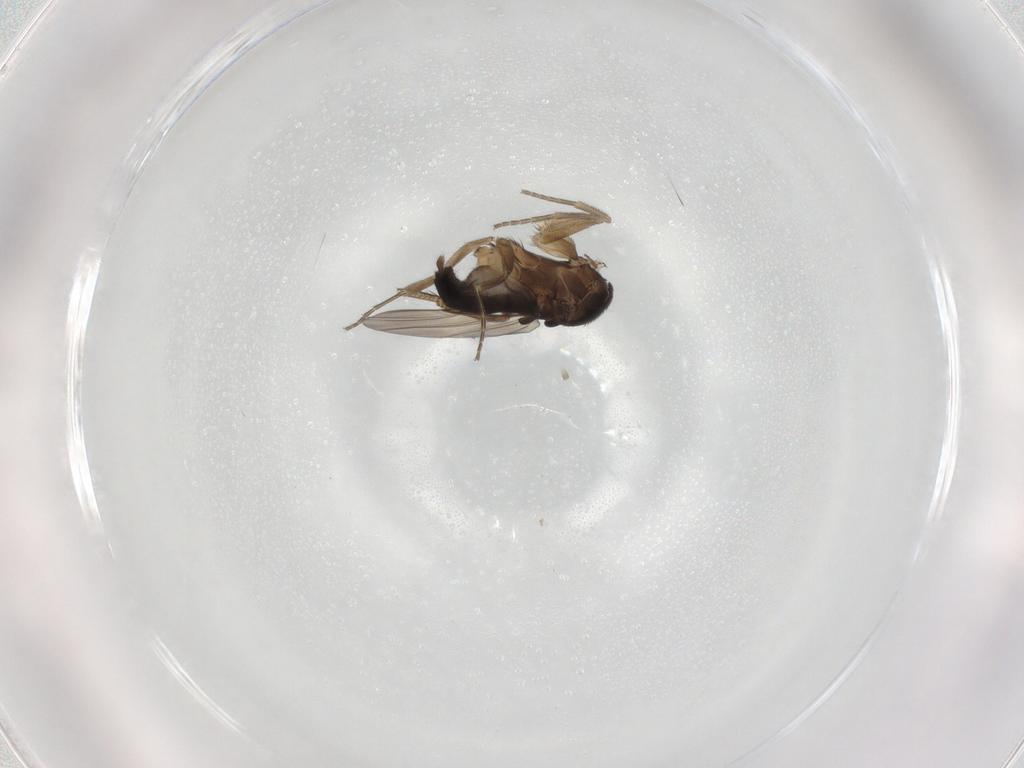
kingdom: Animalia
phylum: Arthropoda
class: Insecta
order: Diptera
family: Phoridae
